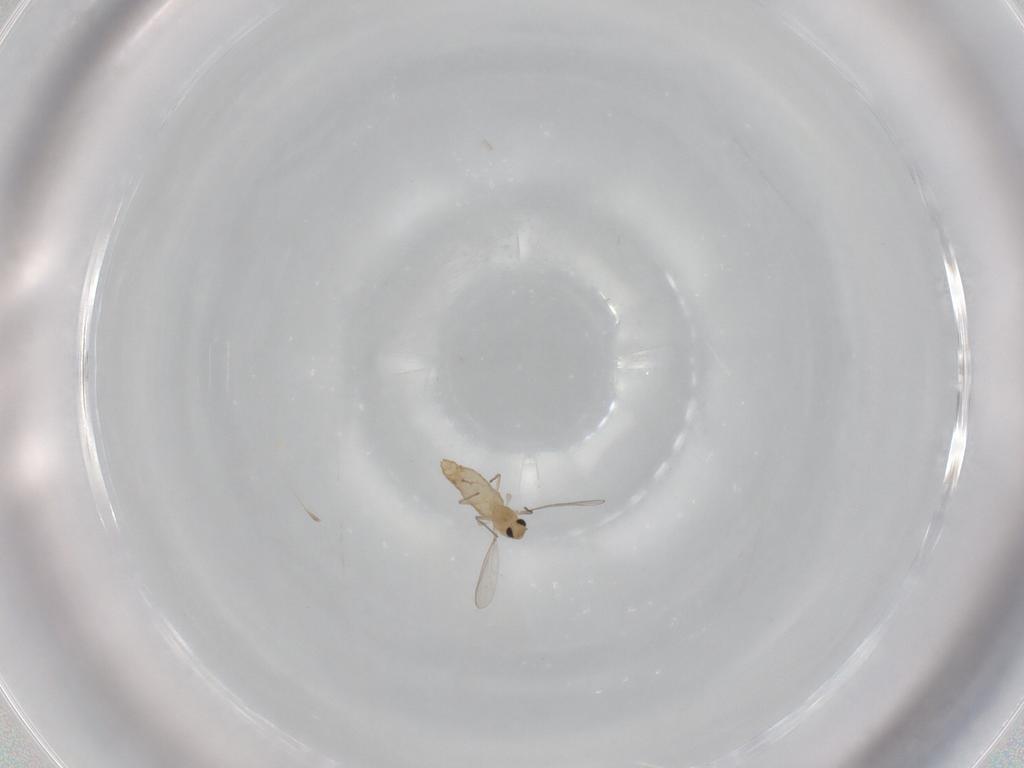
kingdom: Animalia
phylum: Arthropoda
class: Insecta
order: Diptera
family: Chironomidae
